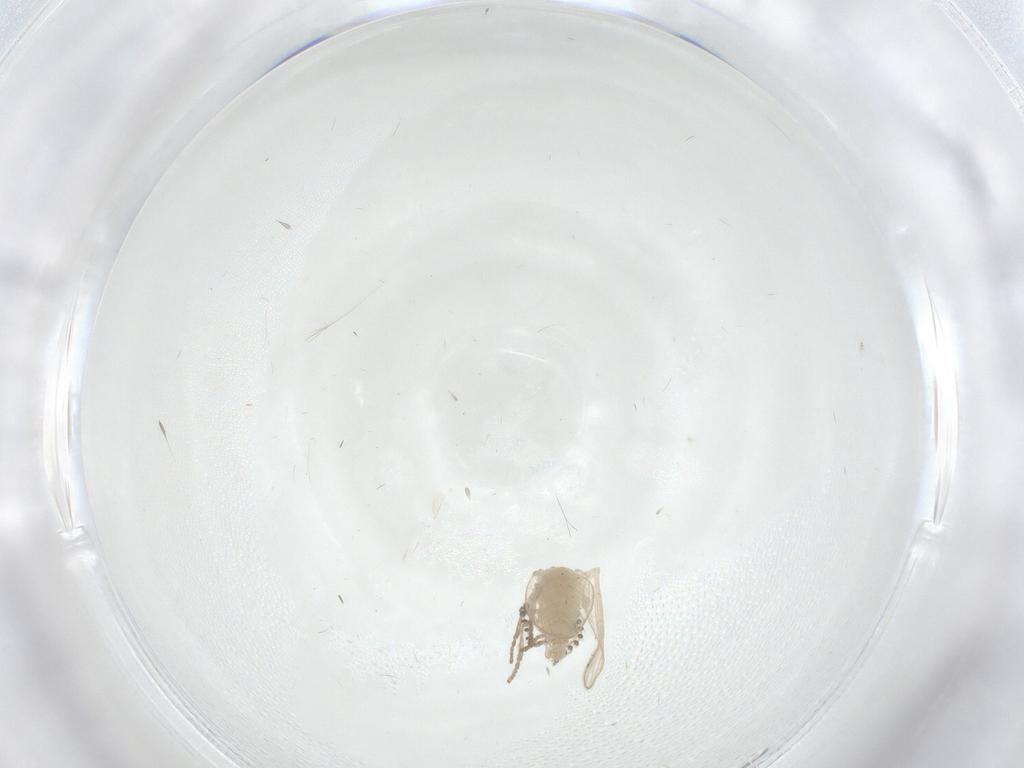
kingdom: Animalia
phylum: Arthropoda
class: Insecta
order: Diptera
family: Psychodidae
